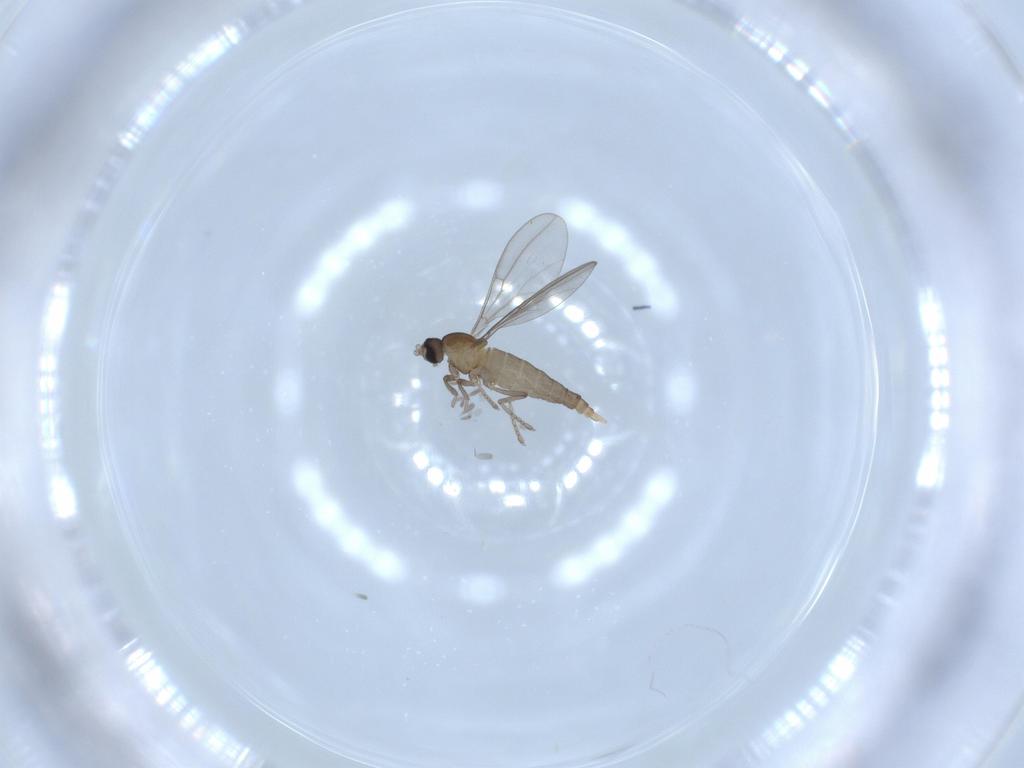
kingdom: Animalia
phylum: Arthropoda
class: Insecta
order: Diptera
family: Cecidomyiidae
